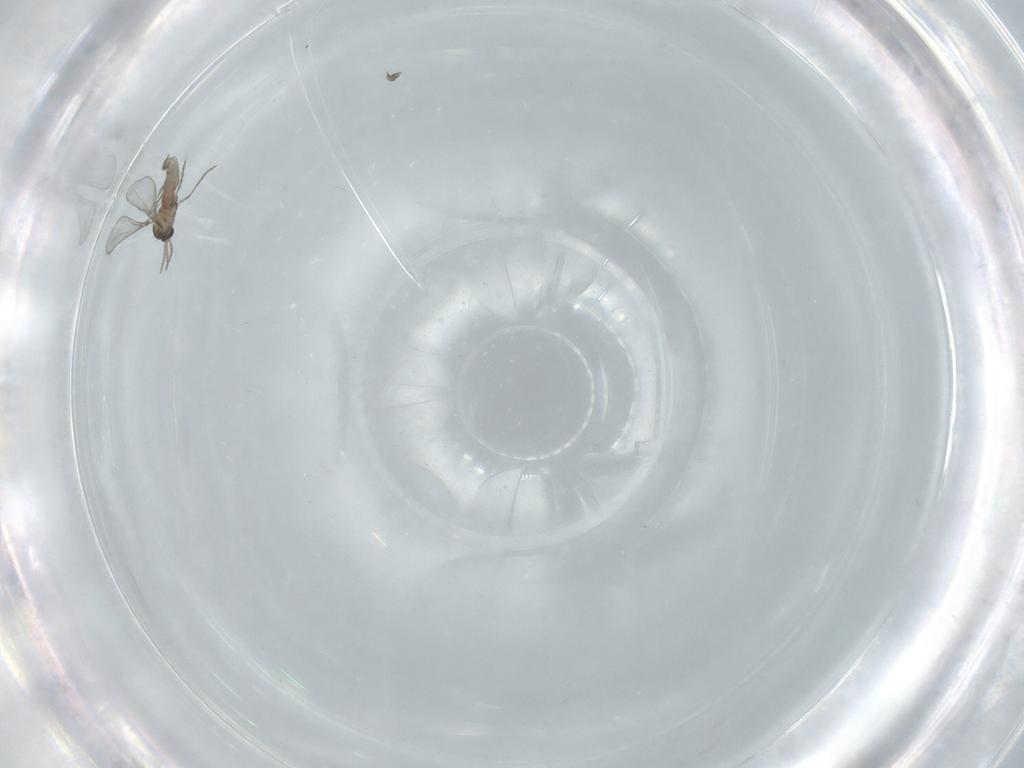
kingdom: Animalia
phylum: Arthropoda
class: Insecta
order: Diptera
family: Cecidomyiidae
